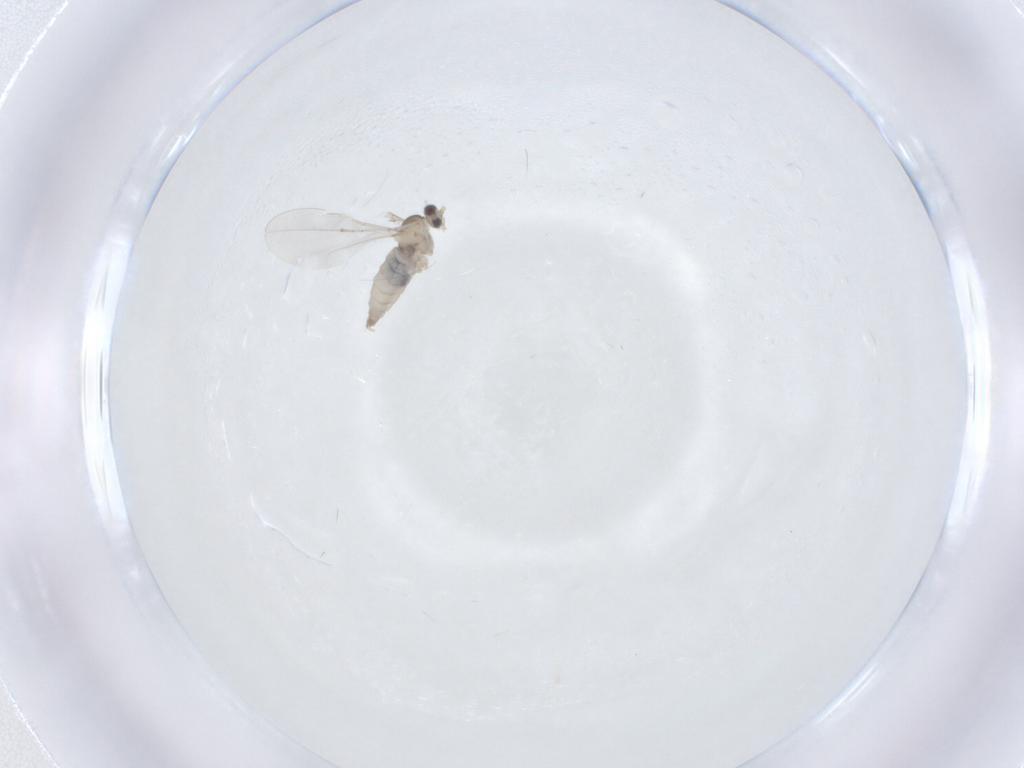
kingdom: Animalia
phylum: Arthropoda
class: Insecta
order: Diptera
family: Cecidomyiidae
